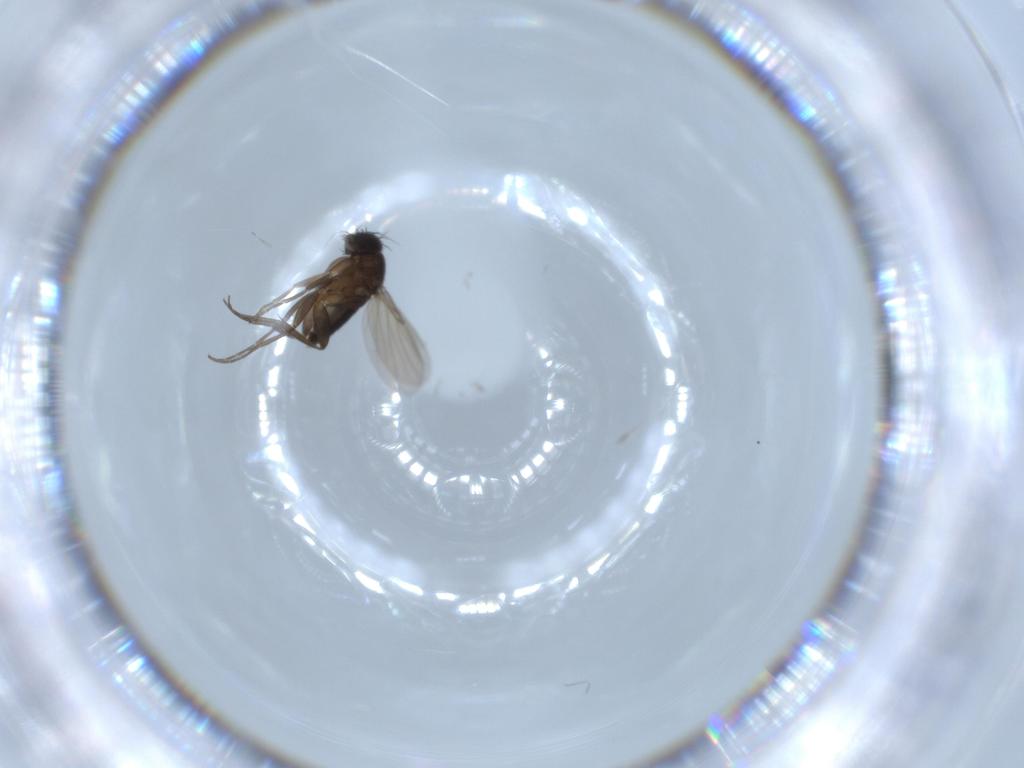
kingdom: Animalia
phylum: Arthropoda
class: Insecta
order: Diptera
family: Phoridae
